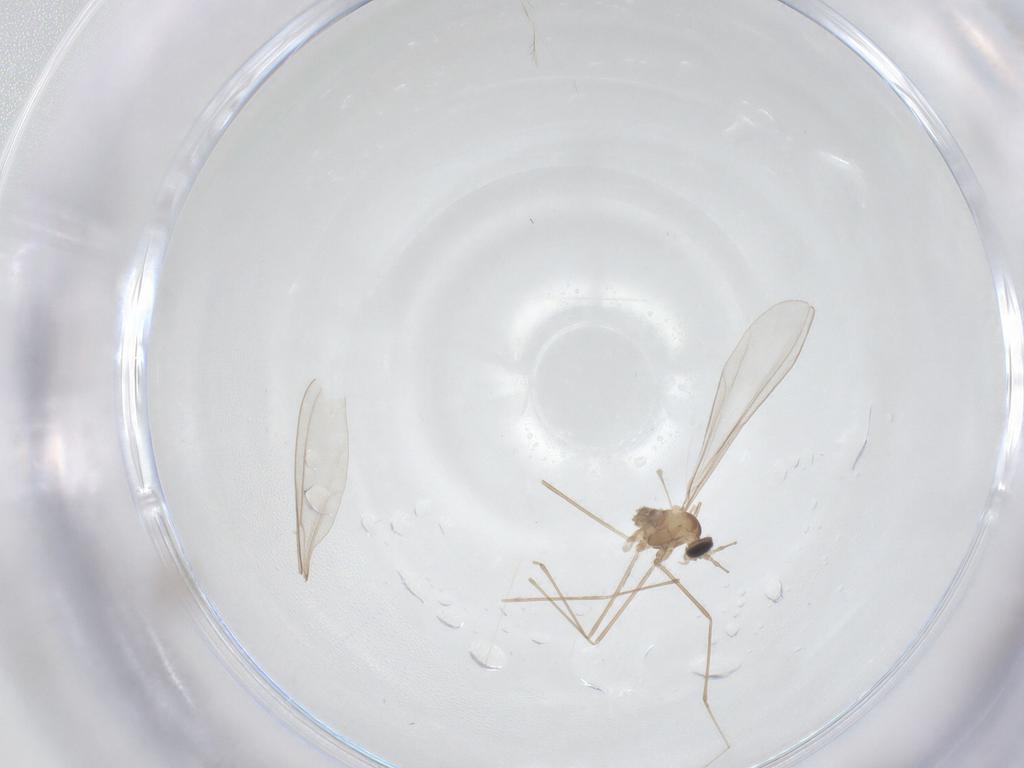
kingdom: Animalia
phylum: Arthropoda
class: Insecta
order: Diptera
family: Cecidomyiidae
